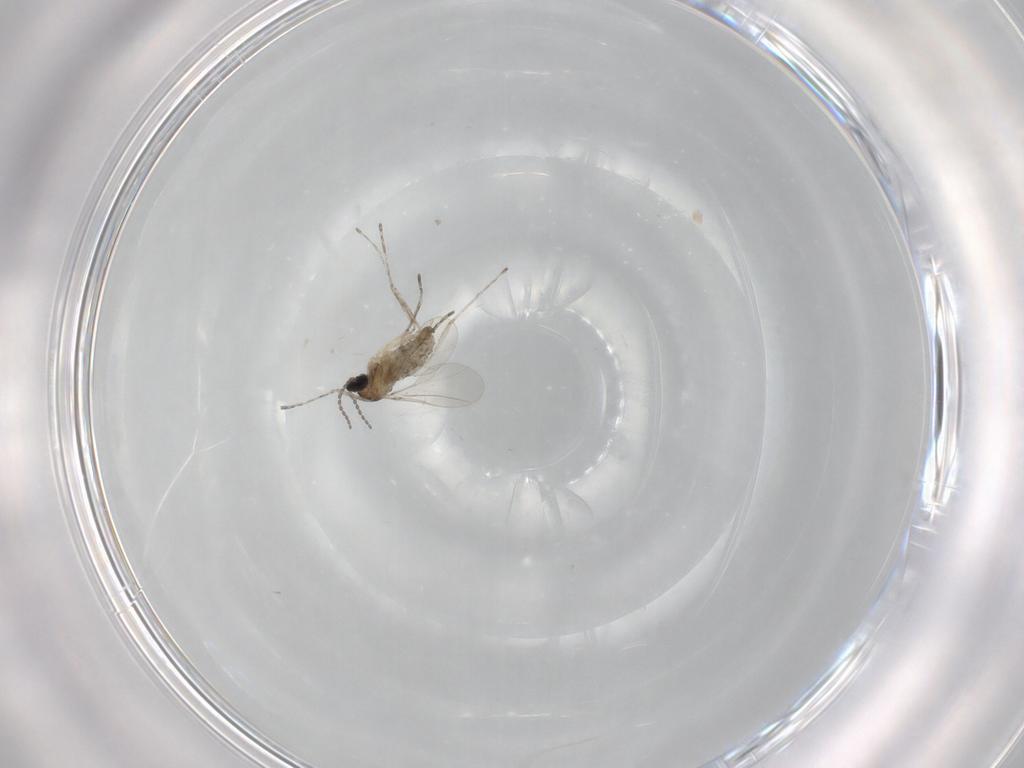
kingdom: Animalia
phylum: Arthropoda
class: Insecta
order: Diptera
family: Cecidomyiidae
